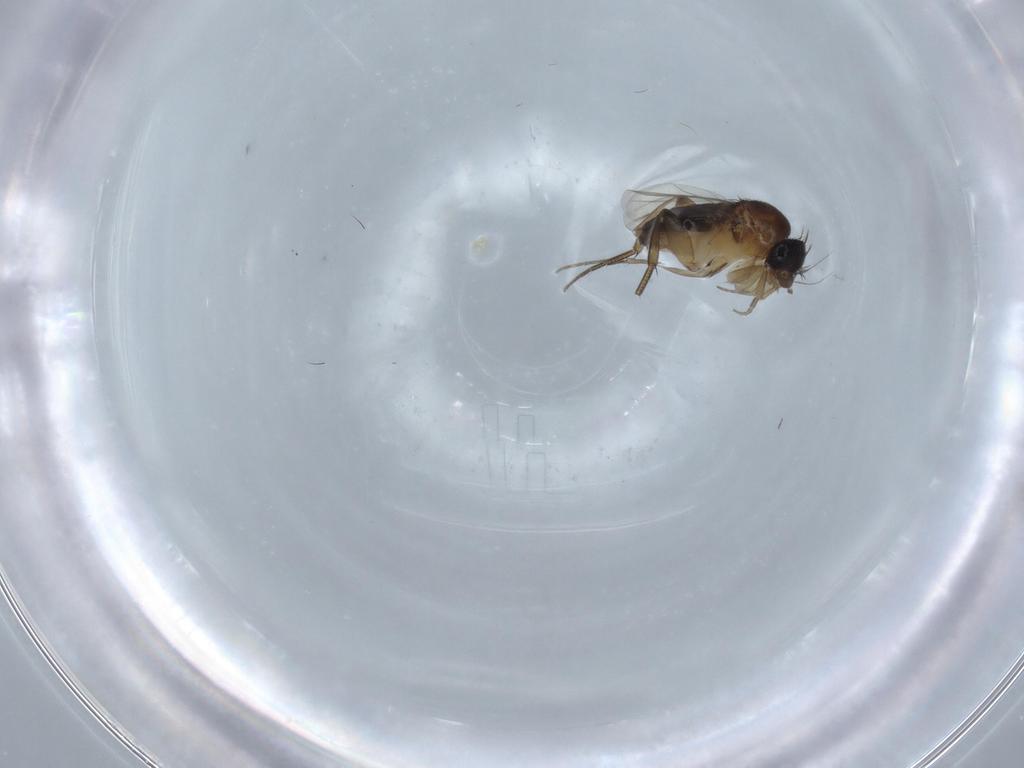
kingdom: Animalia
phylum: Arthropoda
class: Insecta
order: Diptera
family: Phoridae
